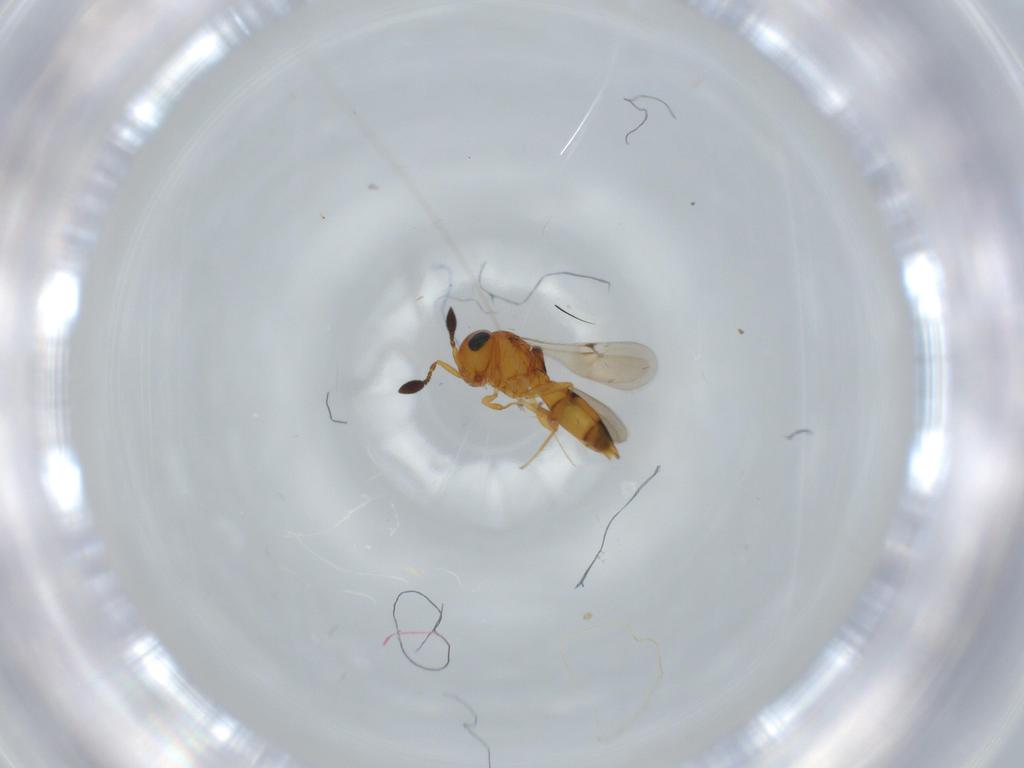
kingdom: Animalia
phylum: Arthropoda
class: Insecta
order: Hymenoptera
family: Scelionidae
